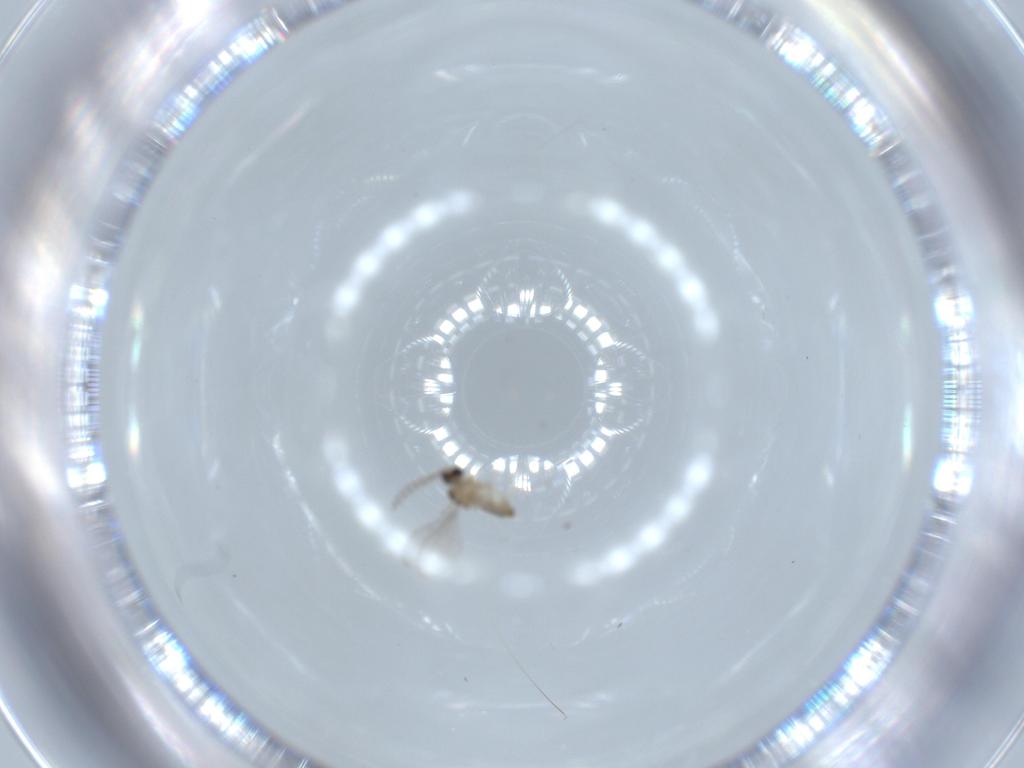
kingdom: Animalia
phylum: Arthropoda
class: Insecta
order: Diptera
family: Cecidomyiidae
